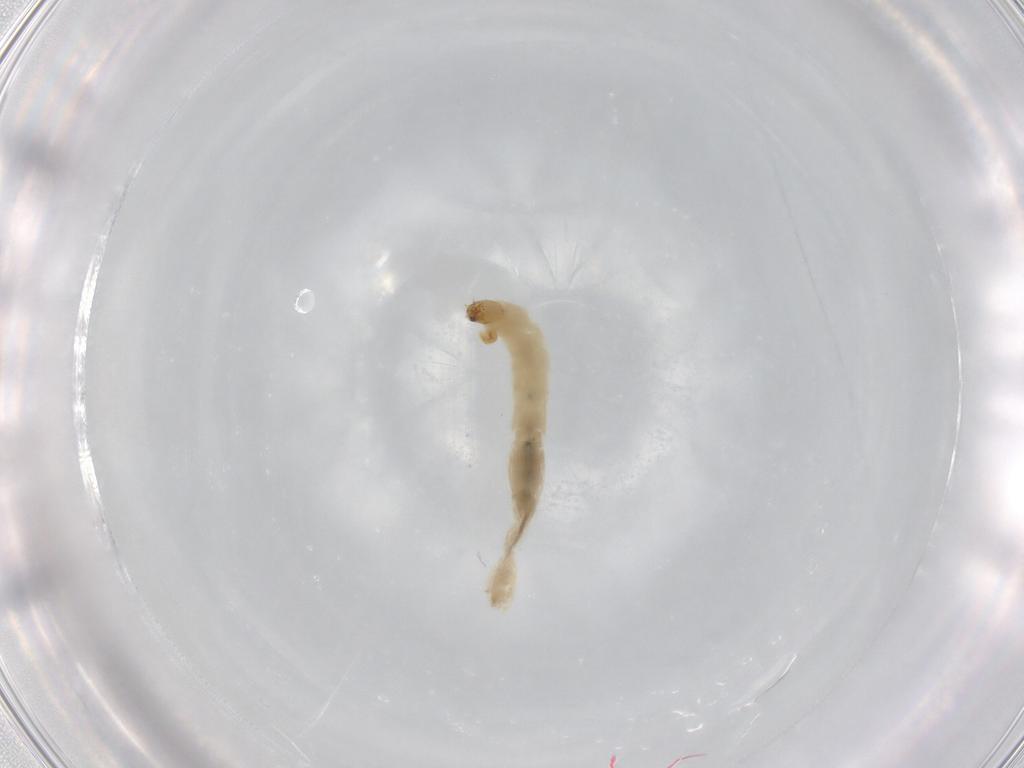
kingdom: Animalia
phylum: Arthropoda
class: Insecta
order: Diptera
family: Chironomidae
